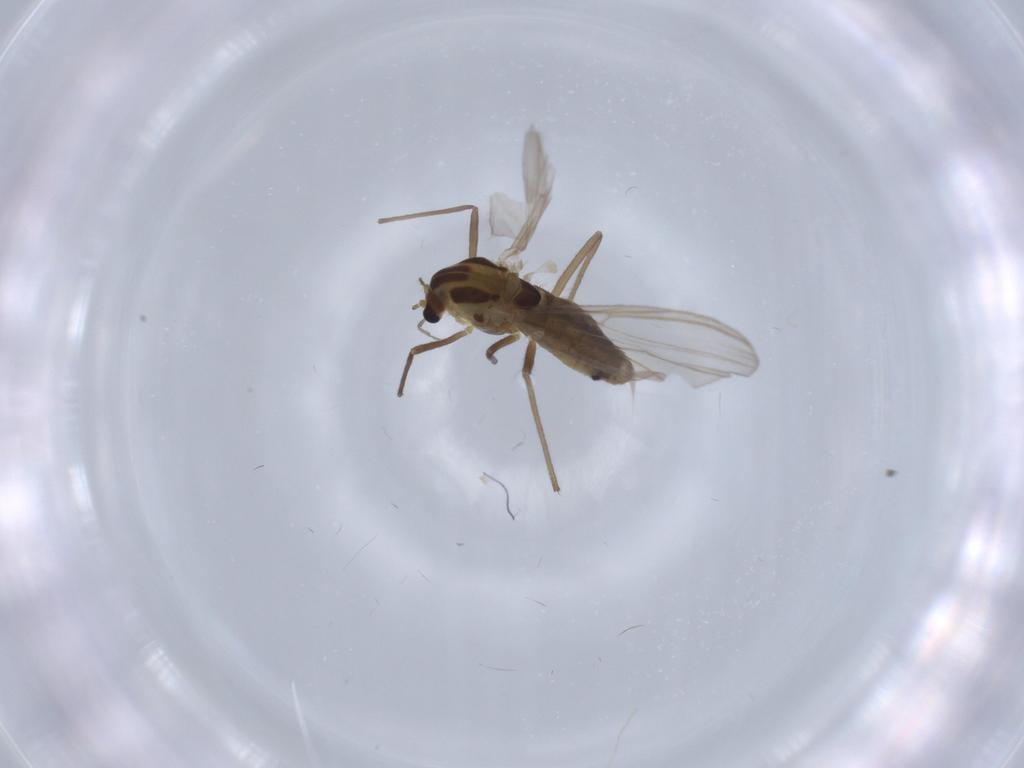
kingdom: Animalia
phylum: Arthropoda
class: Insecta
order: Diptera
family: Chironomidae
